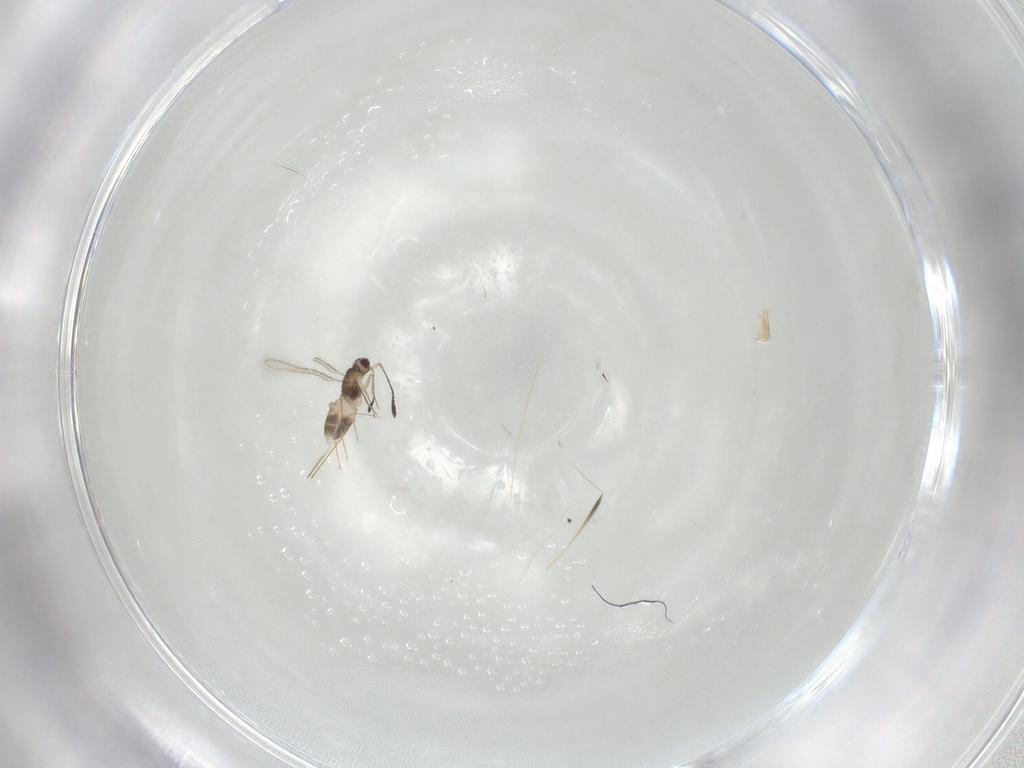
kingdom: Animalia
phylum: Arthropoda
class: Insecta
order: Hymenoptera
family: Mymaridae
